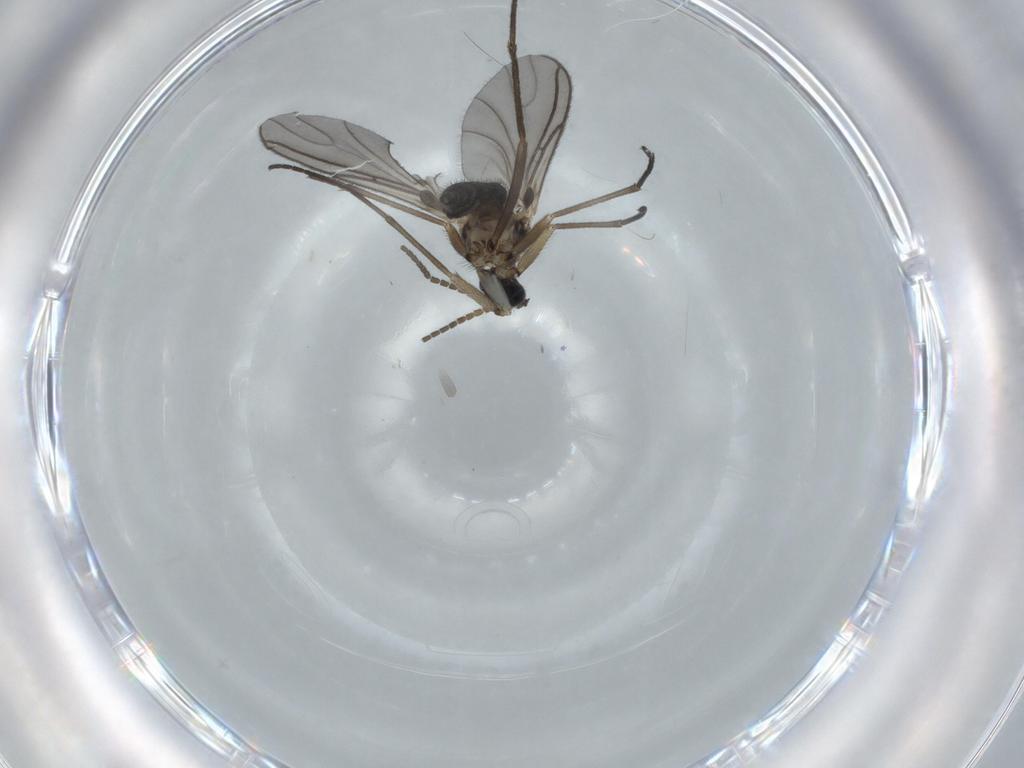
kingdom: Animalia
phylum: Arthropoda
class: Insecta
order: Diptera
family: Sciaridae
